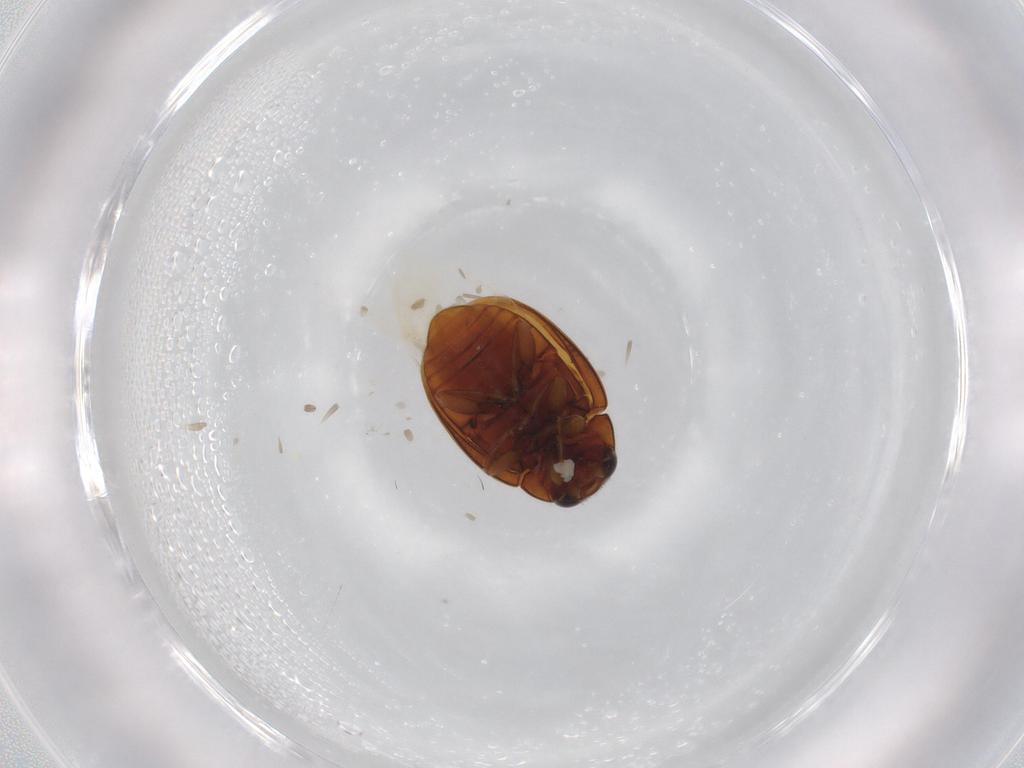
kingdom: Animalia
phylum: Arthropoda
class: Insecta
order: Coleoptera
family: Coccinellidae
